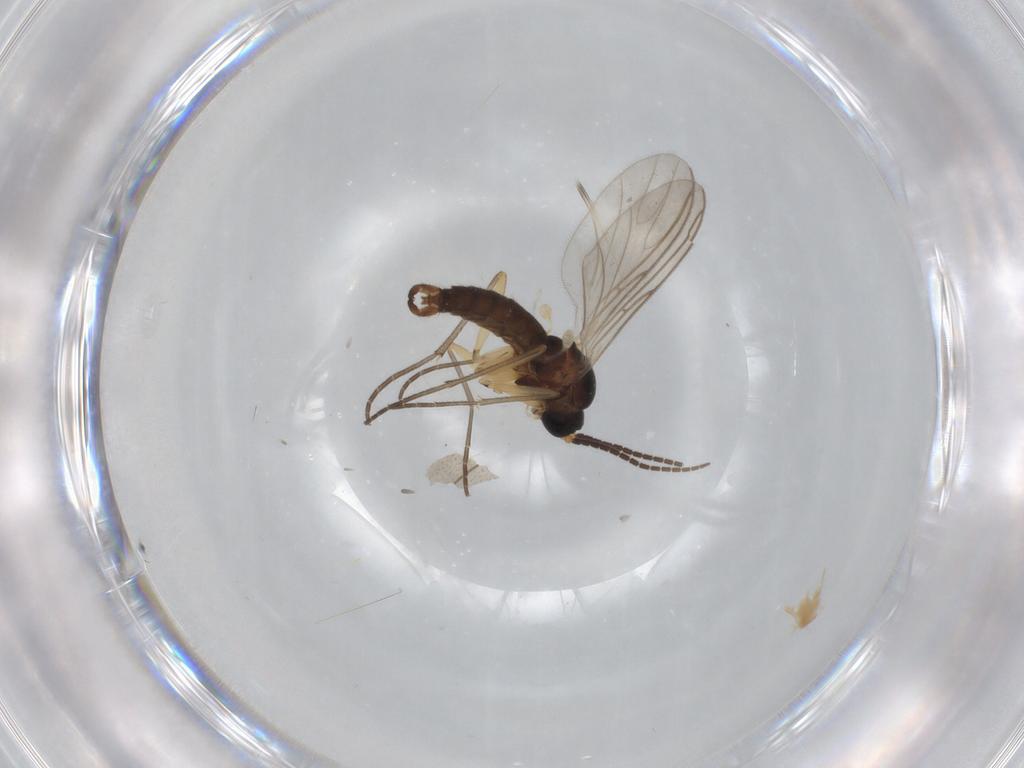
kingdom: Animalia
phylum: Arthropoda
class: Insecta
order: Diptera
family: Sciaridae
